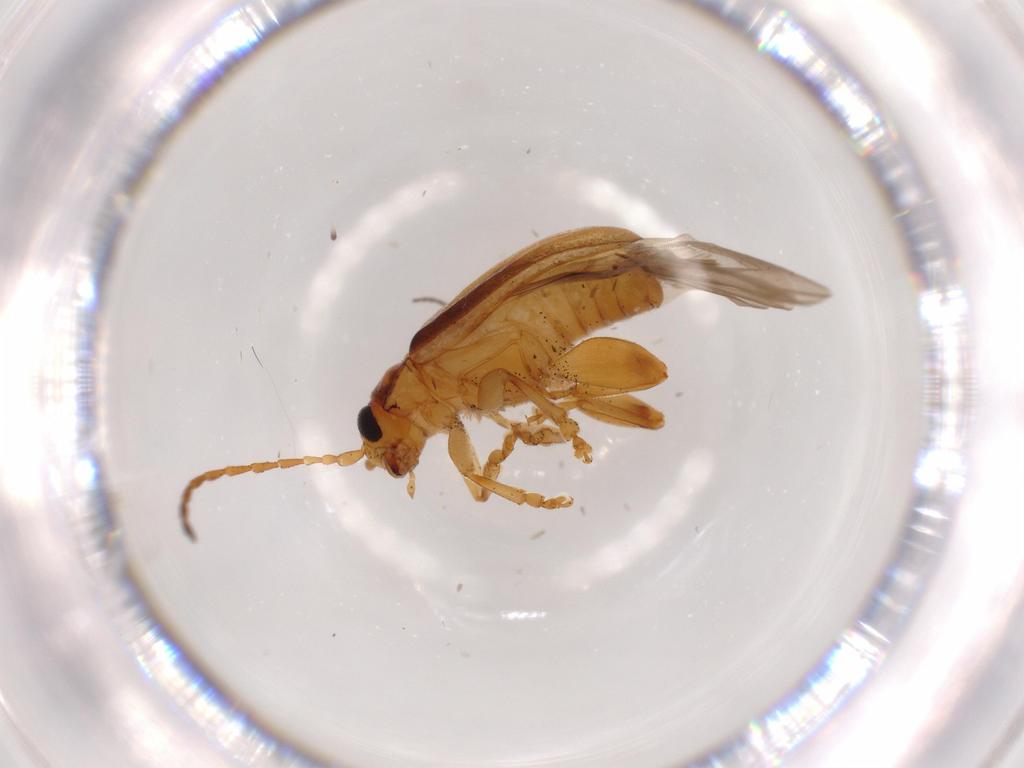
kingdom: Animalia
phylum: Arthropoda
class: Insecta
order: Coleoptera
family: Chrysomelidae
